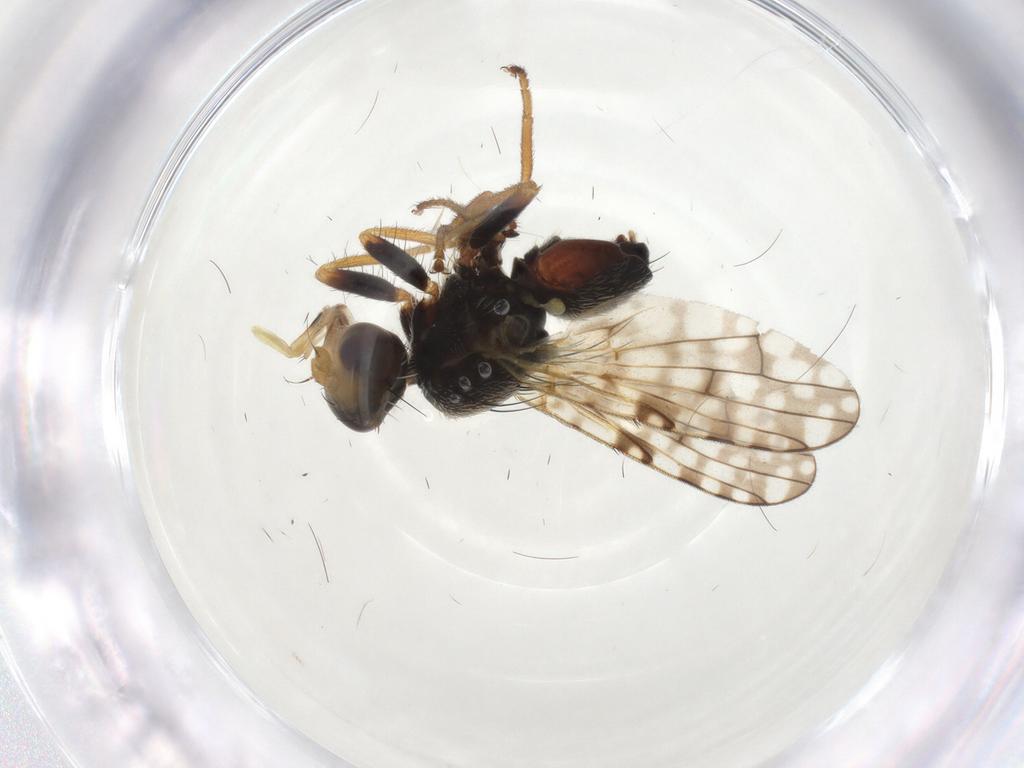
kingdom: Animalia
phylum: Arthropoda
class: Insecta
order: Diptera
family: Tephritidae
